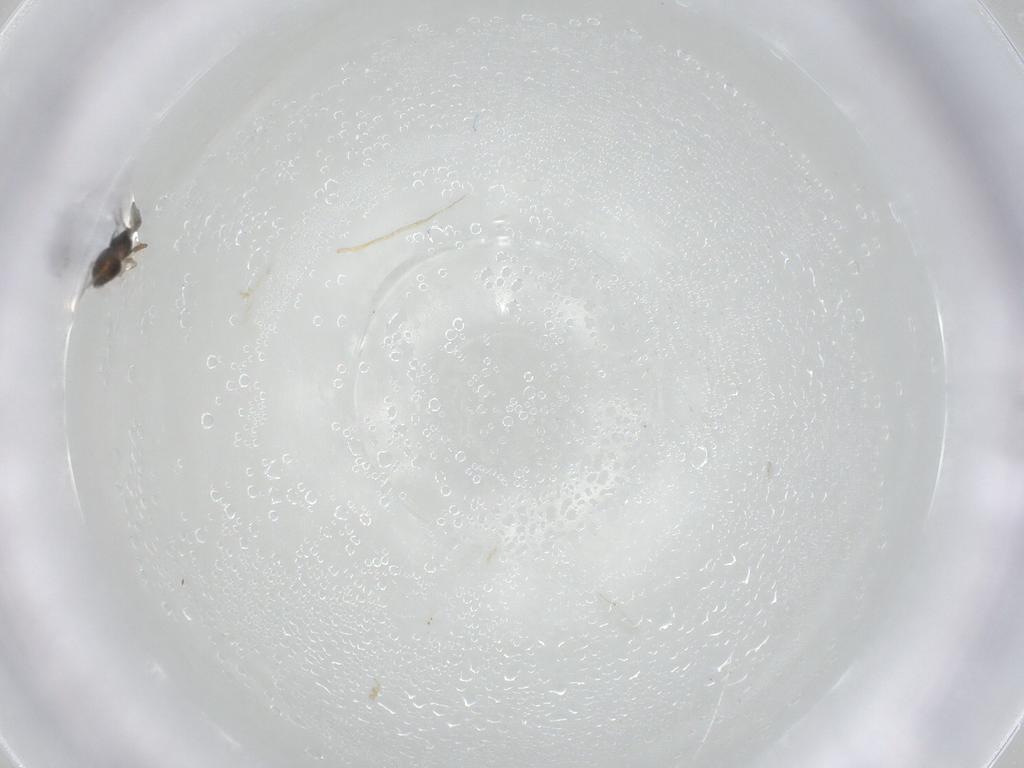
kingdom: Animalia
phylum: Arthropoda
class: Insecta
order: Hymenoptera
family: Eulophidae
